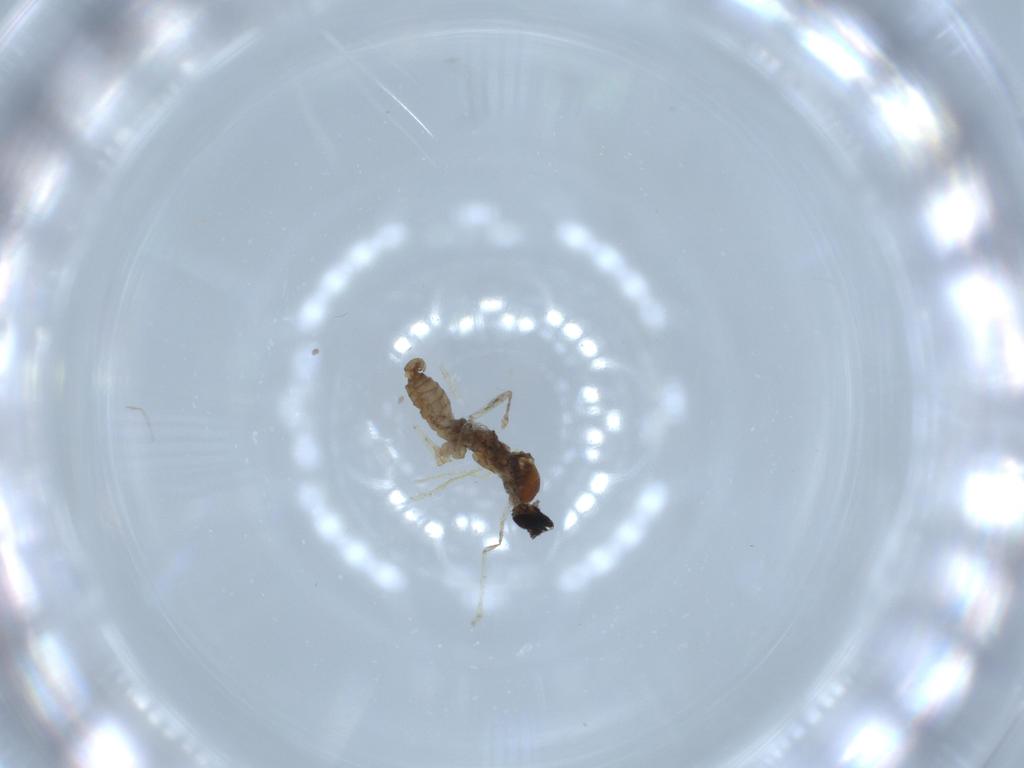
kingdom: Animalia
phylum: Arthropoda
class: Insecta
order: Diptera
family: Cecidomyiidae
